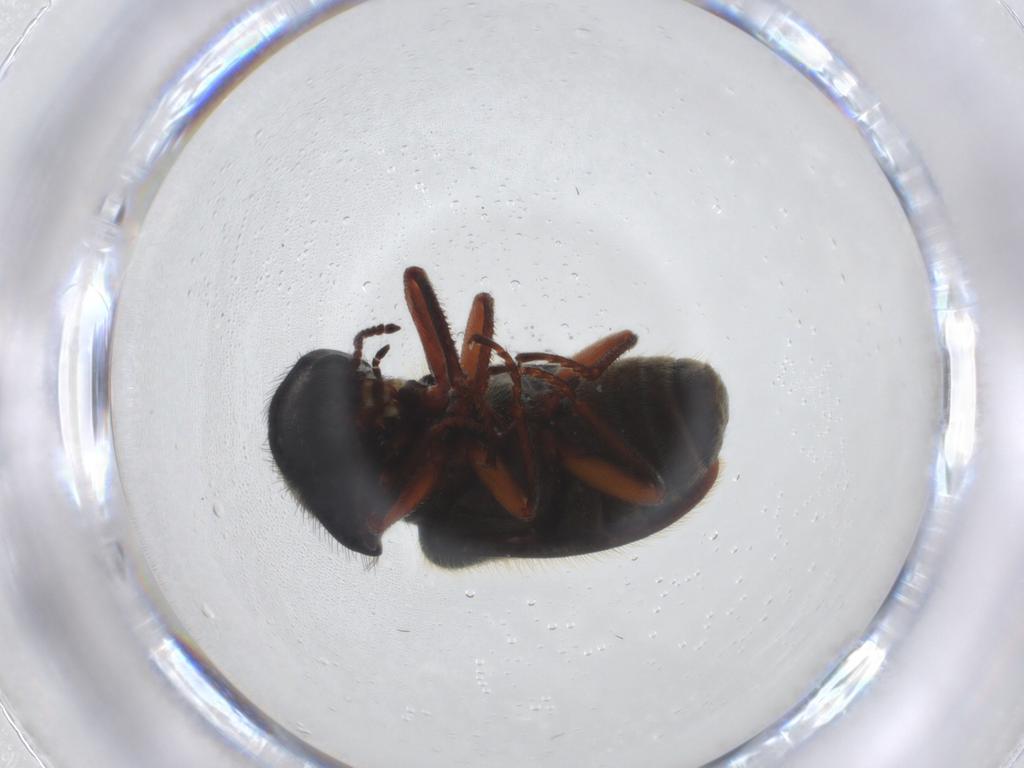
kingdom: Animalia
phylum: Arthropoda
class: Insecta
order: Coleoptera
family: Melyridae
